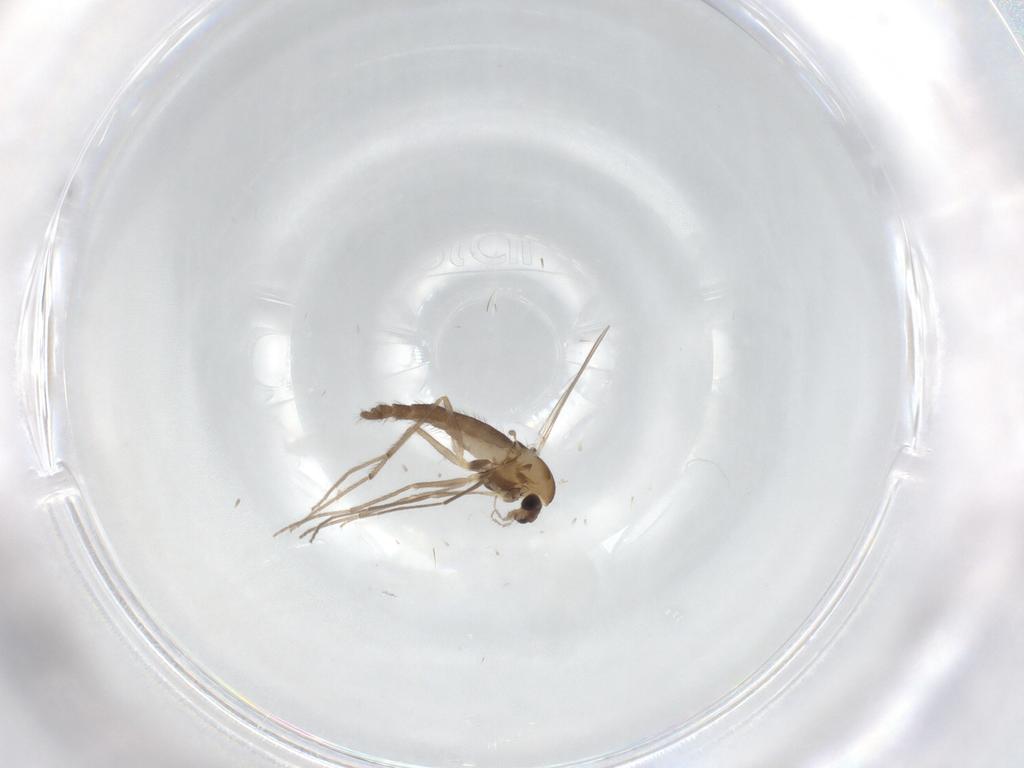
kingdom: Animalia
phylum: Arthropoda
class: Insecta
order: Diptera
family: Chironomidae
